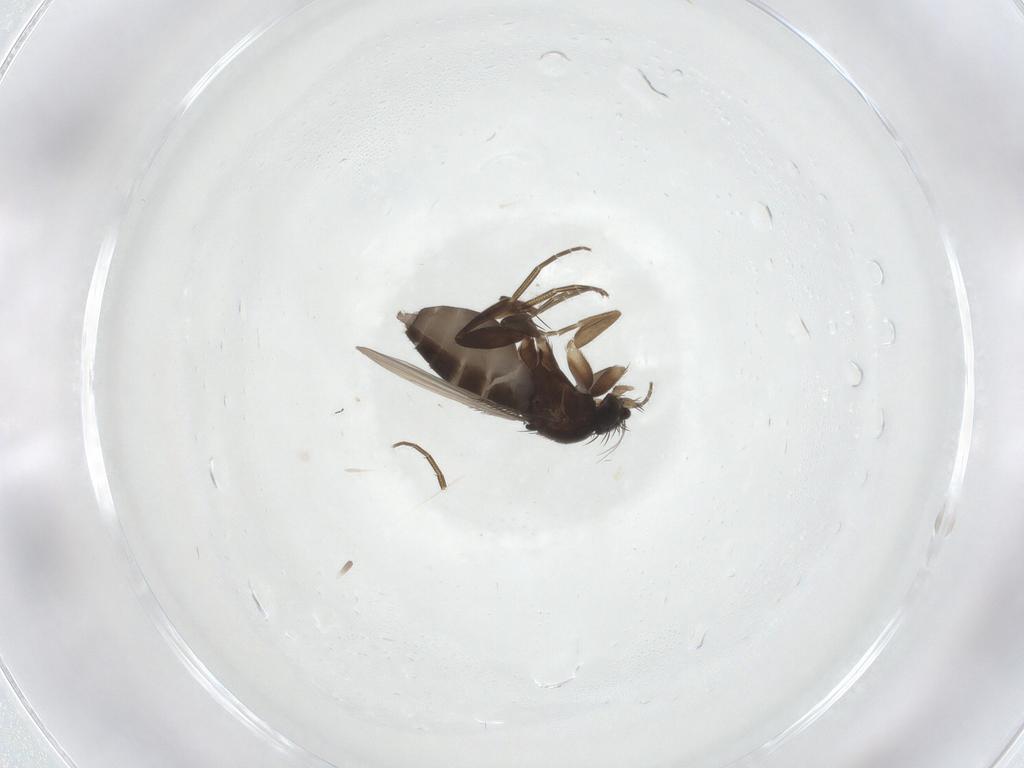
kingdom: Animalia
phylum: Arthropoda
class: Insecta
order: Diptera
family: Phoridae
